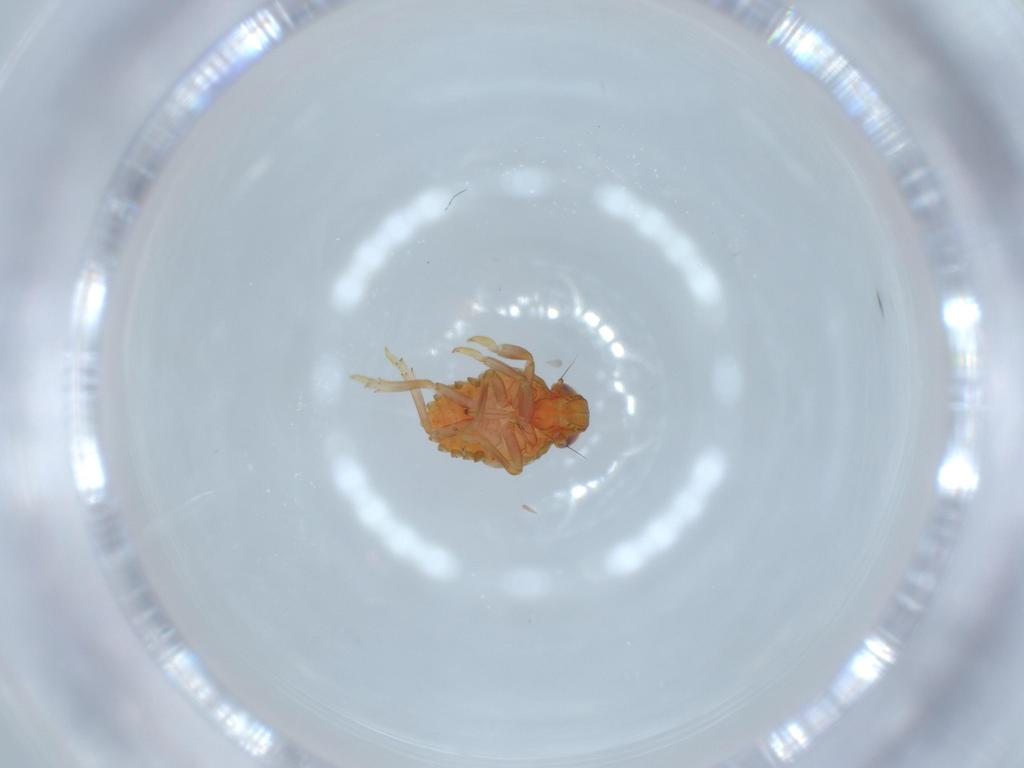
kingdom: Animalia
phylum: Arthropoda
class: Insecta
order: Hemiptera
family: Issidae
